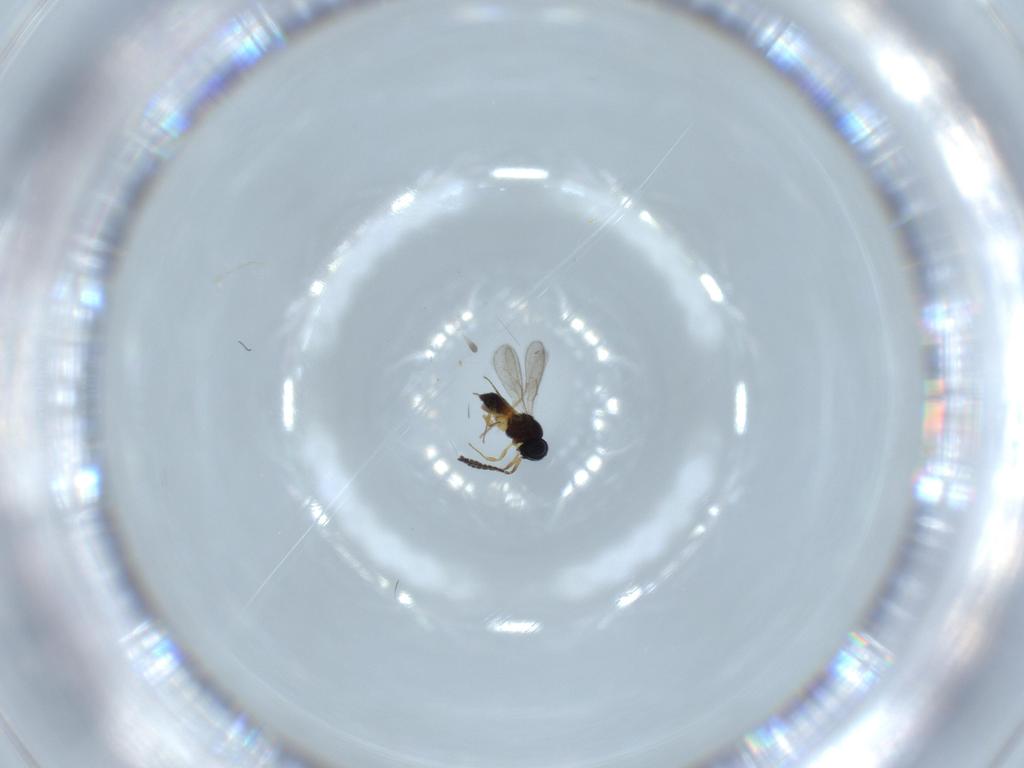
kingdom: Animalia
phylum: Arthropoda
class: Insecta
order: Hymenoptera
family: Scelionidae
